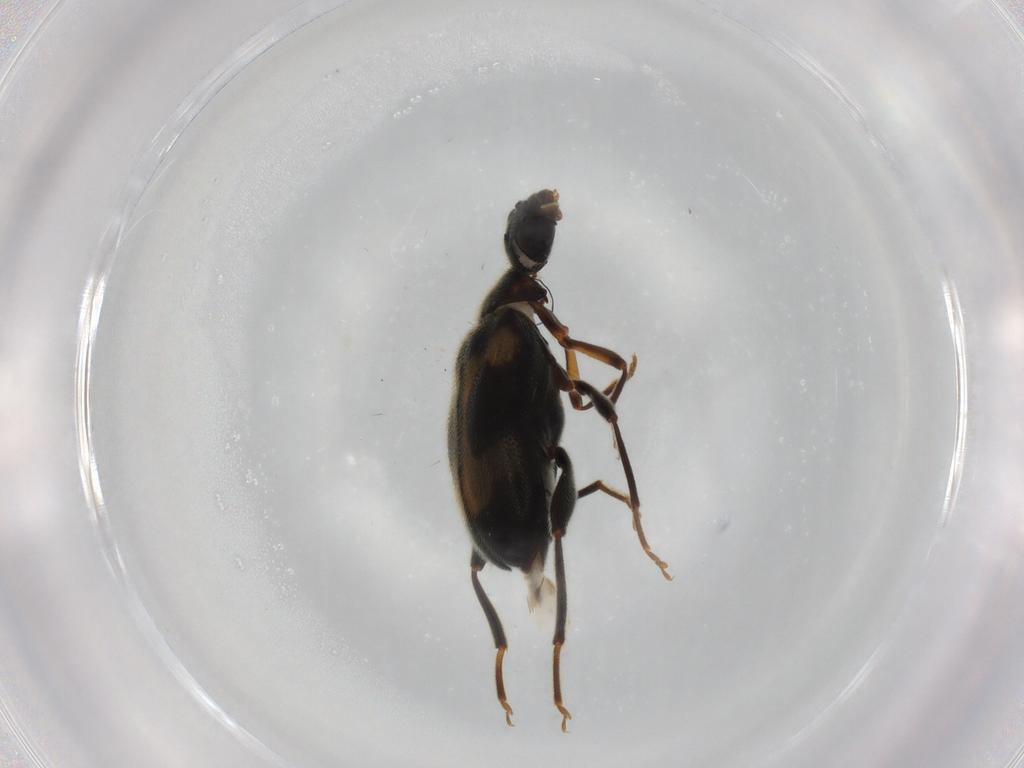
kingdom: Animalia
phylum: Arthropoda
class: Insecta
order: Coleoptera
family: Aderidae
